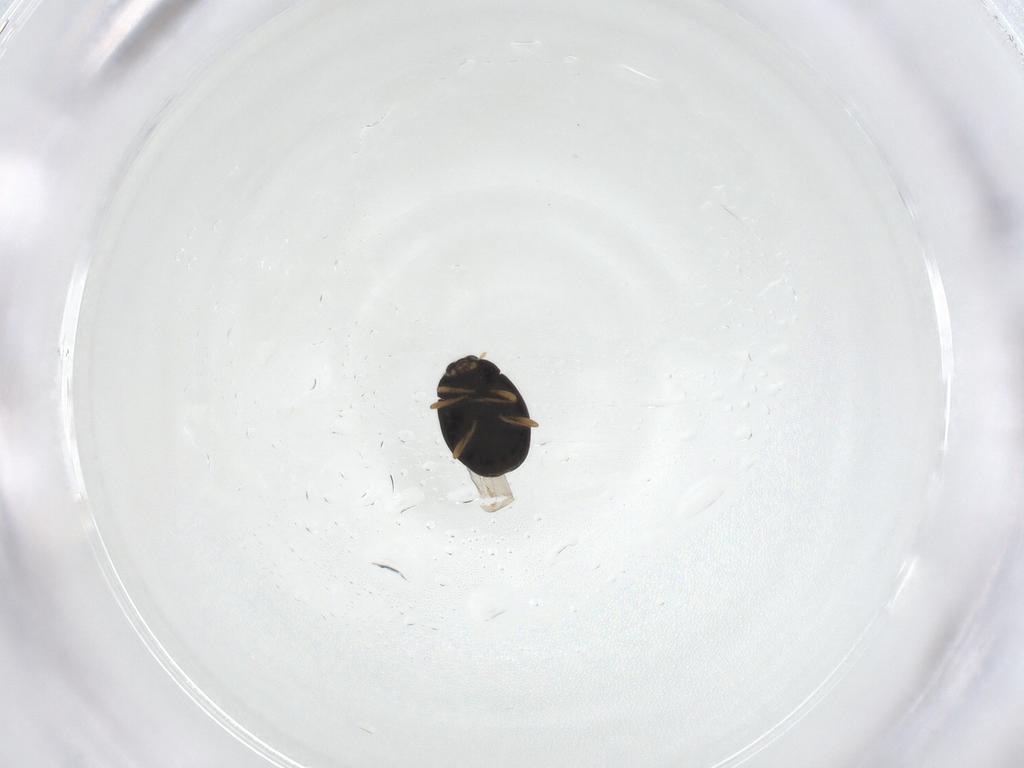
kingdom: Animalia
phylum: Arthropoda
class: Insecta
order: Coleoptera
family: Coccinellidae
